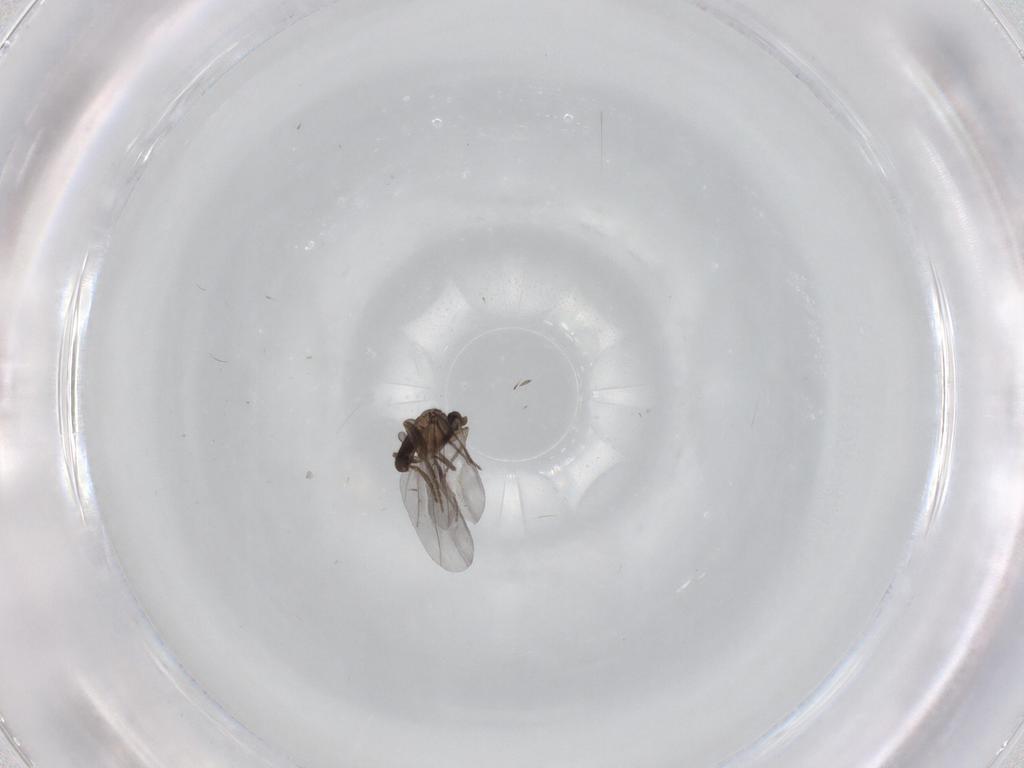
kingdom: Animalia
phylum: Arthropoda
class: Insecta
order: Diptera
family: Phoridae
